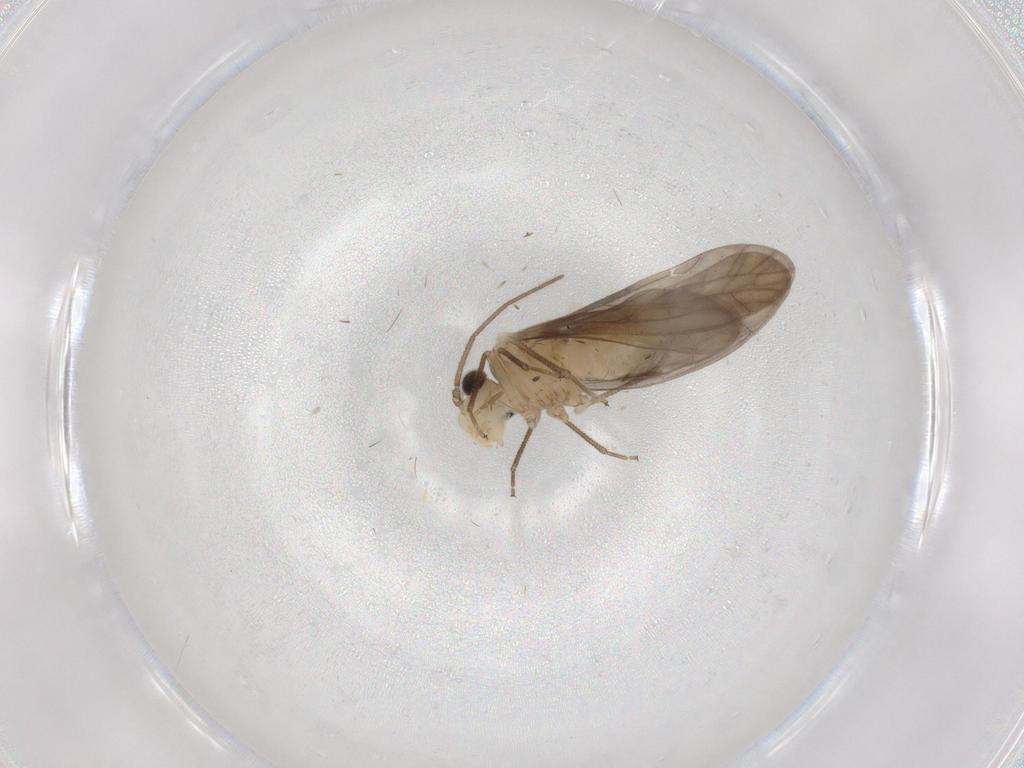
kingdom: Animalia
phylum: Arthropoda
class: Insecta
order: Psocodea
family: Caeciliusidae
